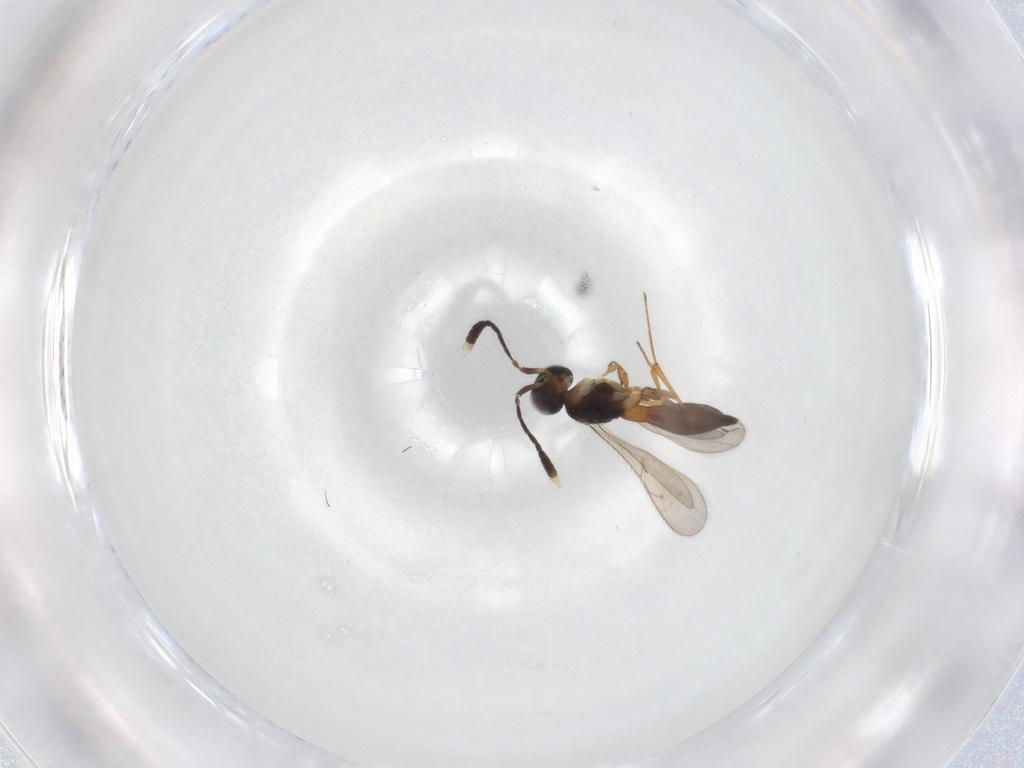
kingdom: Animalia
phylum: Arthropoda
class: Insecta
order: Hymenoptera
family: Scelionidae
